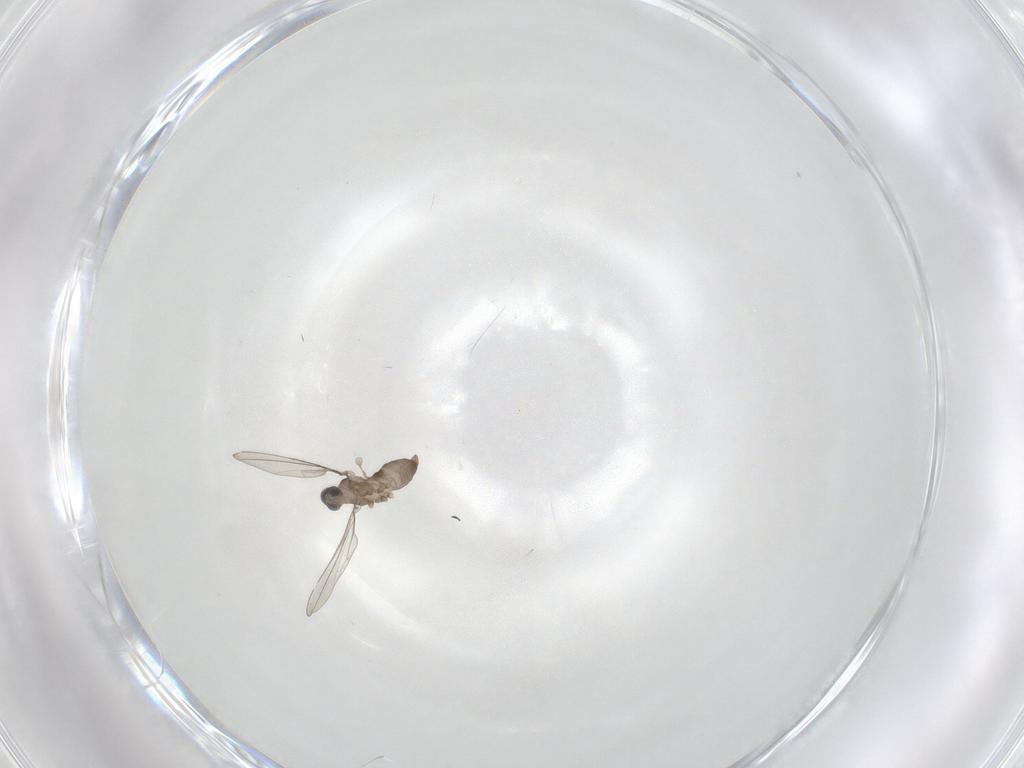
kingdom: Animalia
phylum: Arthropoda
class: Insecta
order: Diptera
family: Cecidomyiidae
